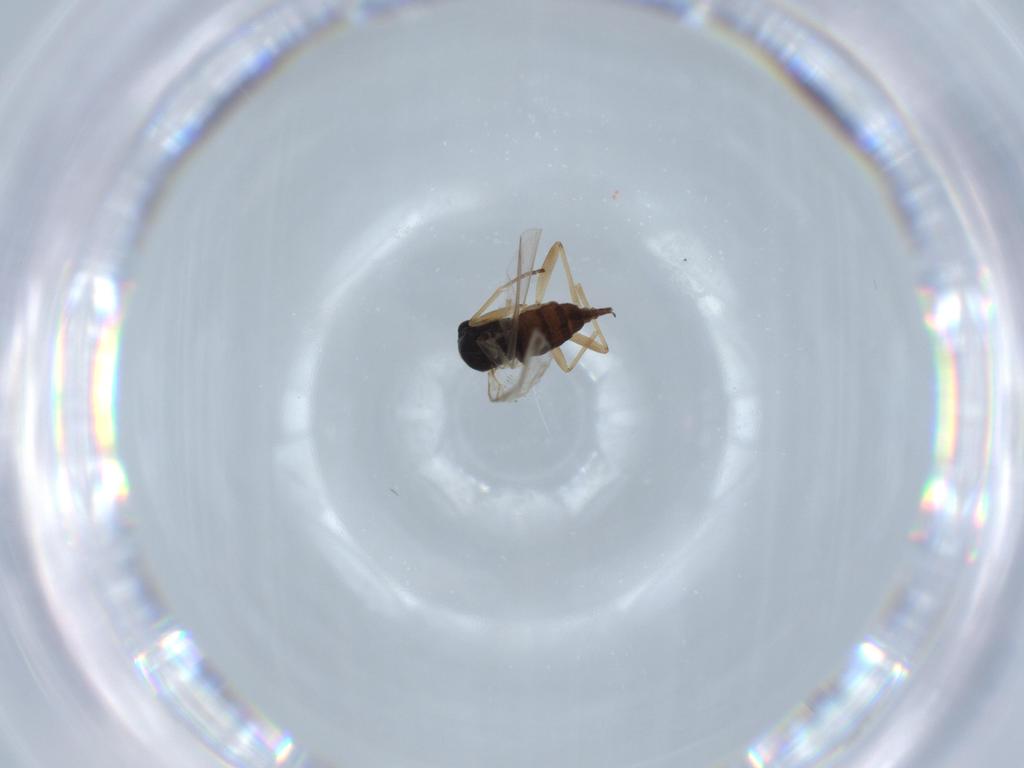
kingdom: Animalia
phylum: Arthropoda
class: Insecta
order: Diptera
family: Sciaridae
